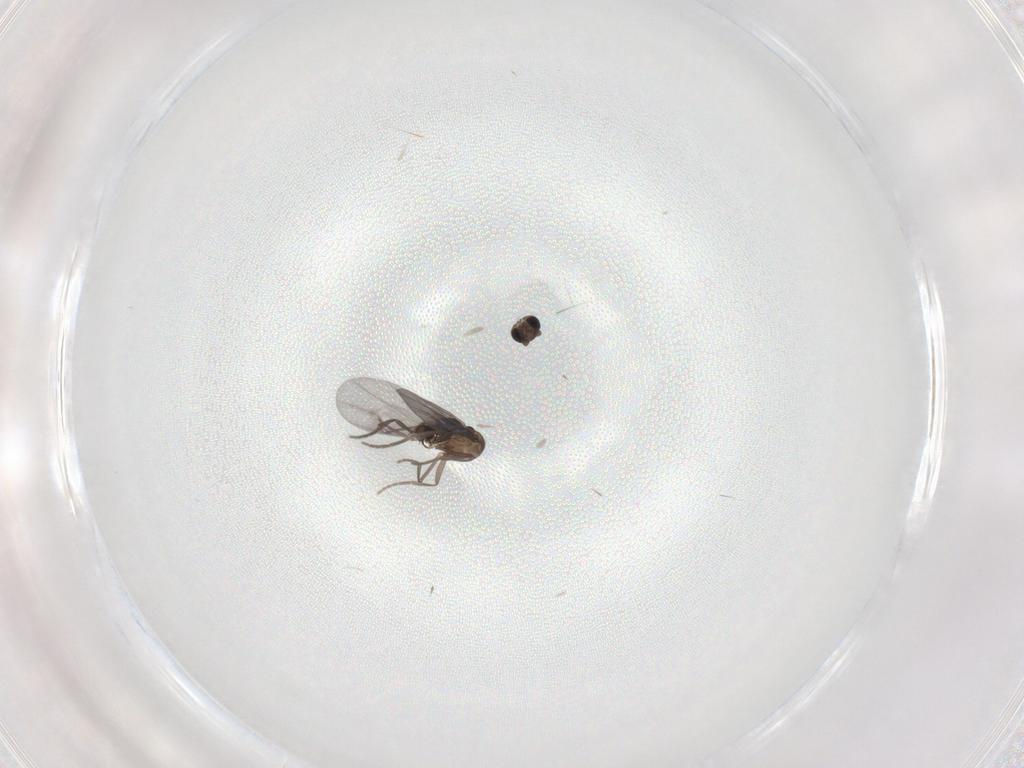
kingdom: Animalia
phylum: Arthropoda
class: Insecta
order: Diptera
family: Phoridae
